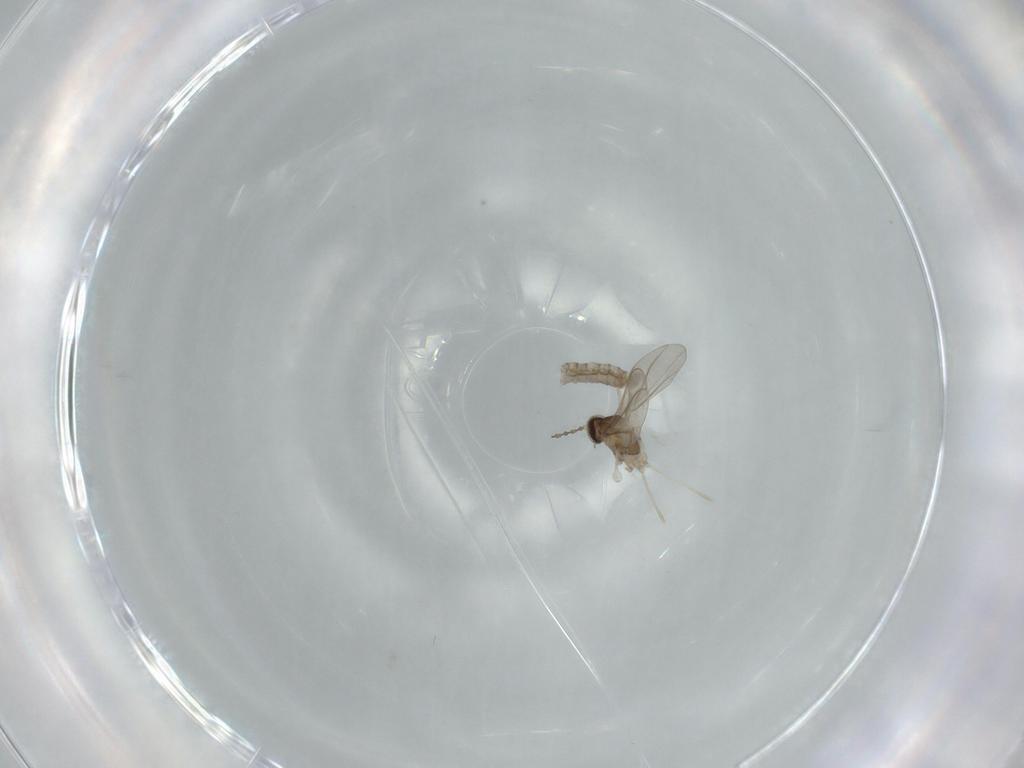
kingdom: Animalia
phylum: Arthropoda
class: Insecta
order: Diptera
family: Cecidomyiidae
